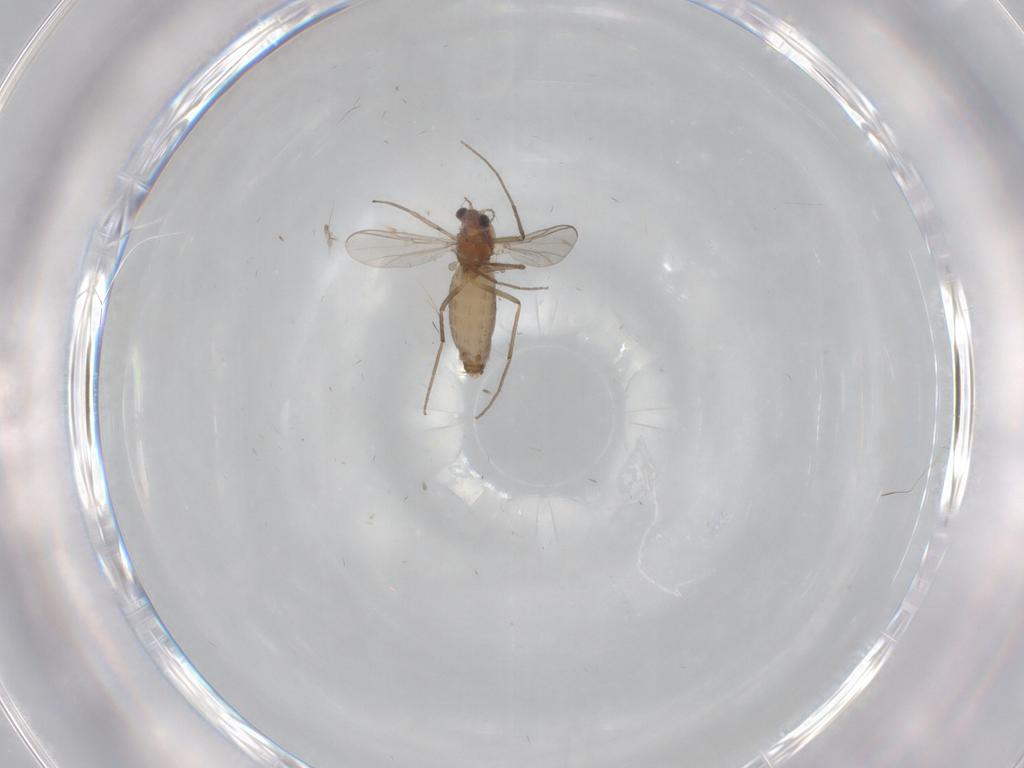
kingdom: Animalia
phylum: Arthropoda
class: Insecta
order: Diptera
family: Chironomidae
